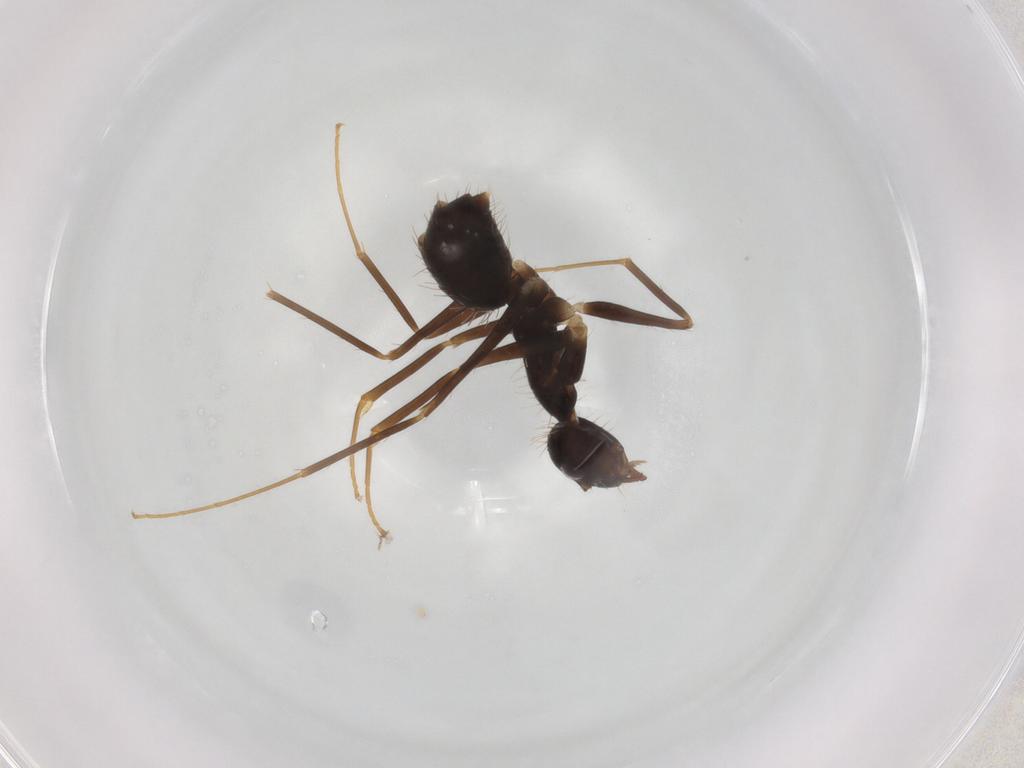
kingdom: Animalia
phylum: Arthropoda
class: Insecta
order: Hymenoptera
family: Formicidae
